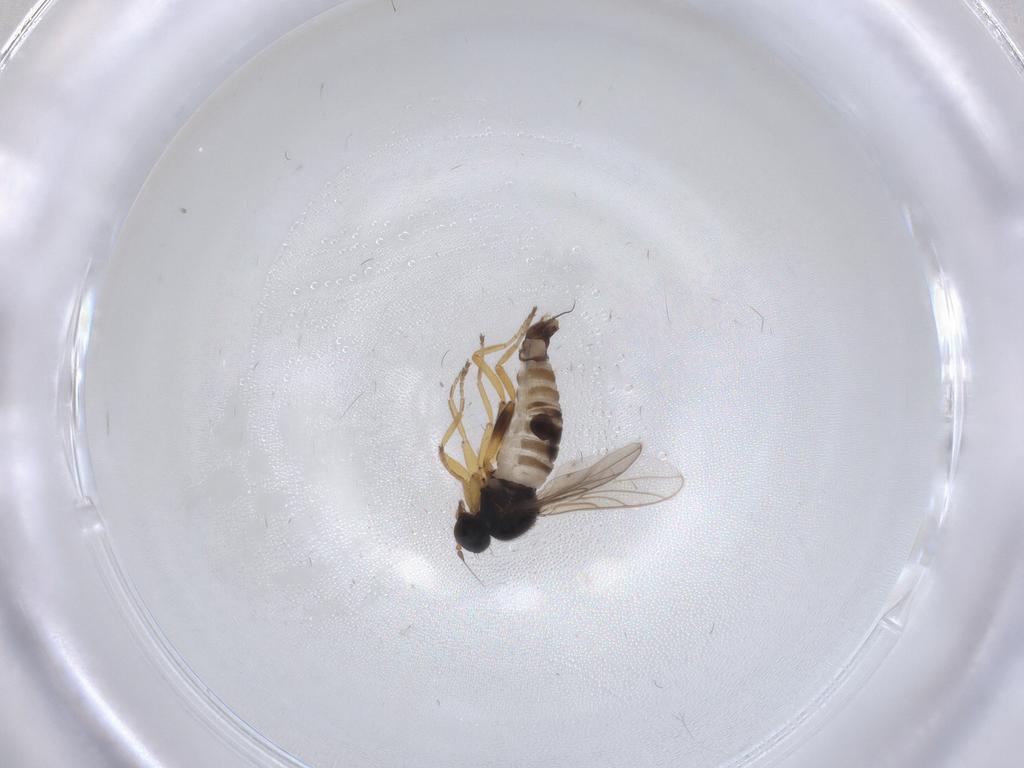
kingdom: Animalia
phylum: Arthropoda
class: Insecta
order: Diptera
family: Hybotidae
